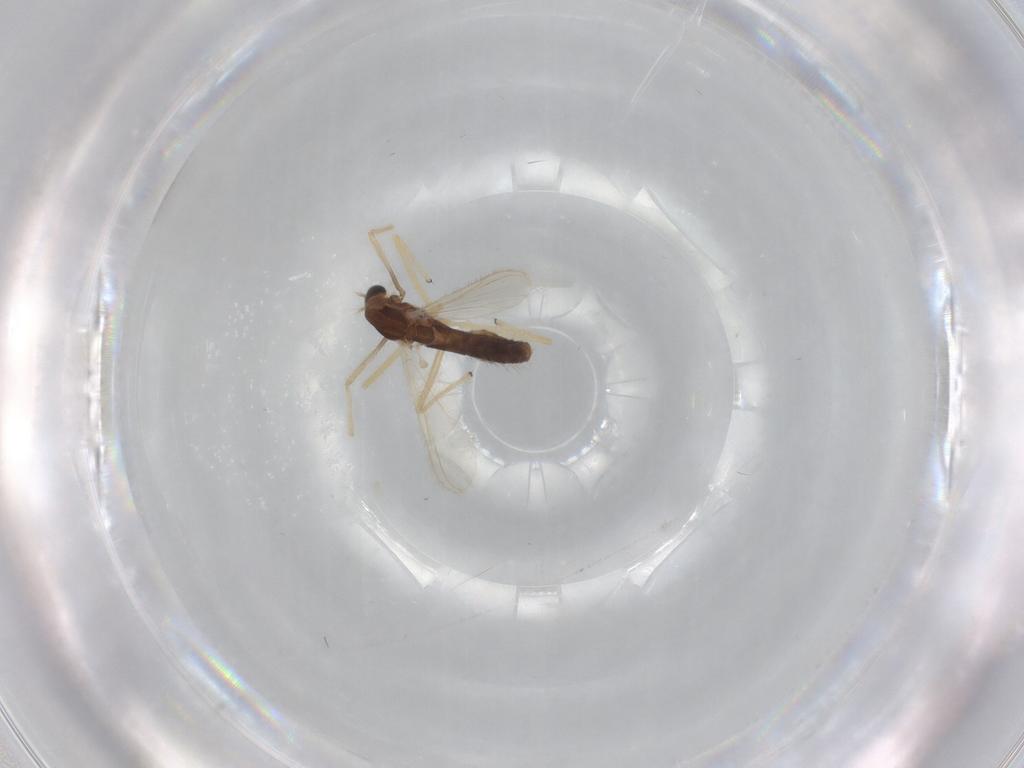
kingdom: Animalia
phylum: Arthropoda
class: Insecta
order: Diptera
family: Chironomidae
